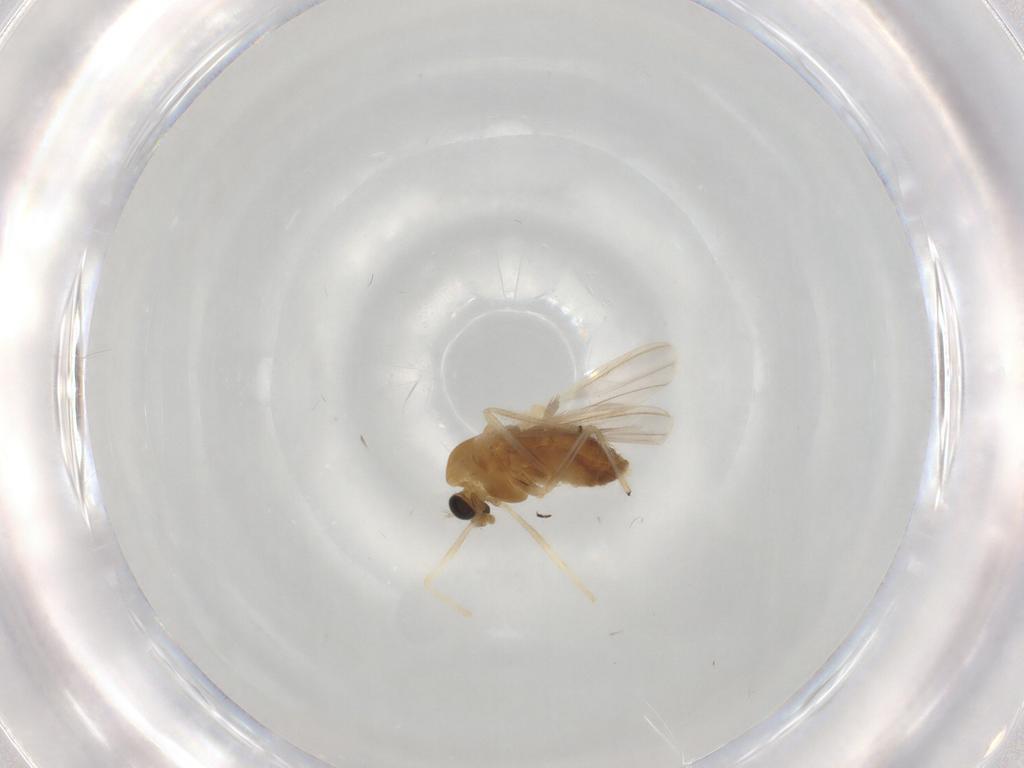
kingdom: Animalia
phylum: Arthropoda
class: Insecta
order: Diptera
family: Chironomidae
